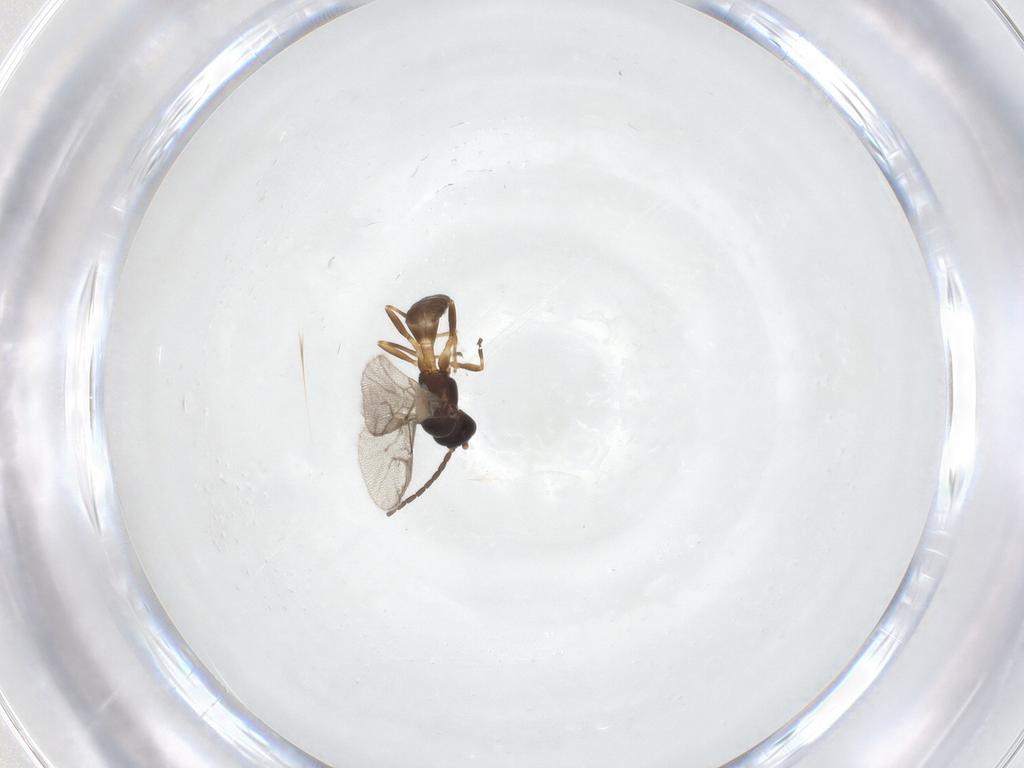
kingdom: Animalia
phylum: Arthropoda
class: Insecta
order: Hymenoptera
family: Braconidae
